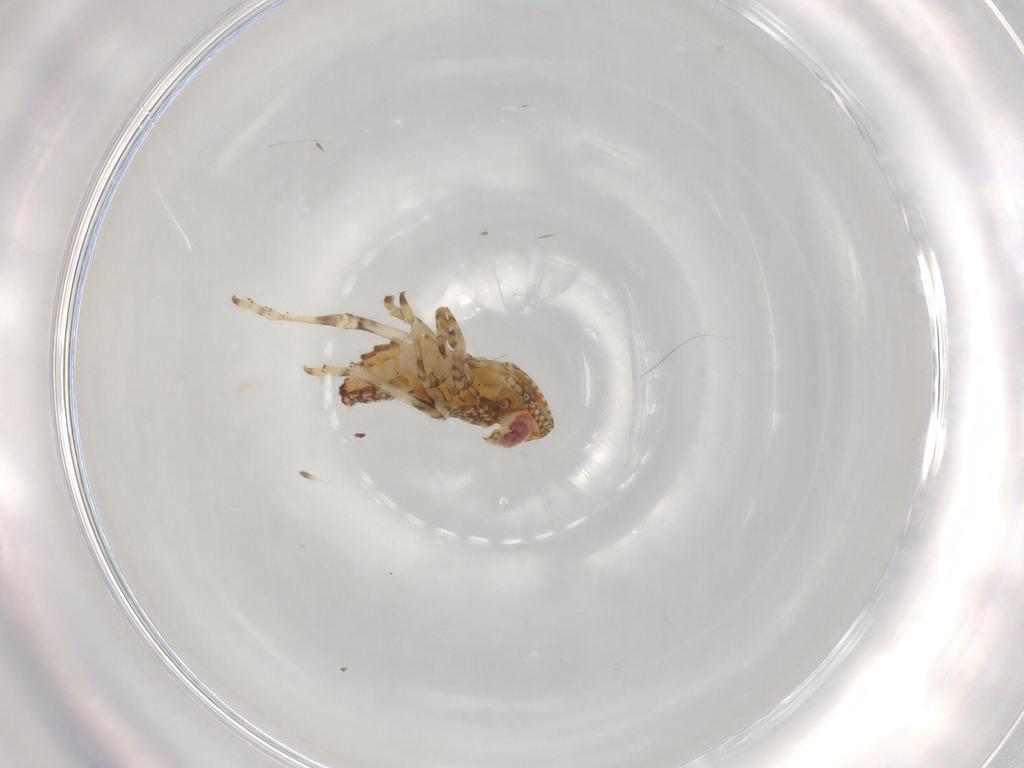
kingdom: Animalia
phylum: Arthropoda
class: Insecta
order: Hemiptera
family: Tropiduchidae
